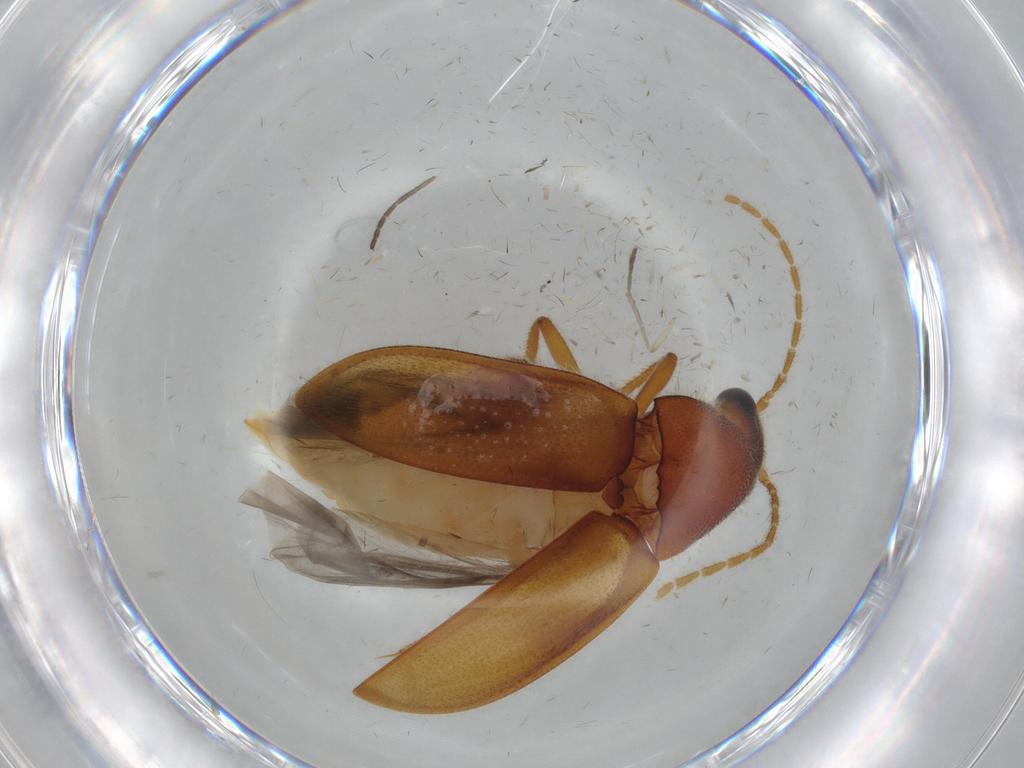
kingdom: Animalia
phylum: Arthropoda
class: Insecta
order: Coleoptera
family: Ptilodactylidae
